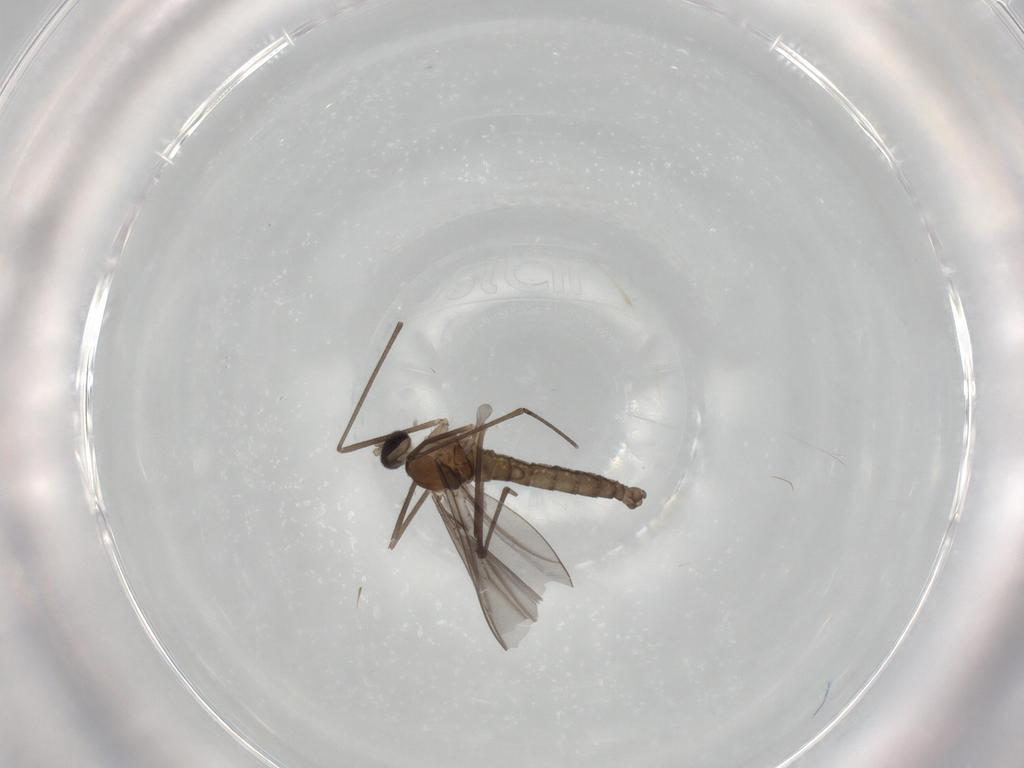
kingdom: Animalia
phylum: Arthropoda
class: Insecta
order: Diptera
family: Cecidomyiidae
